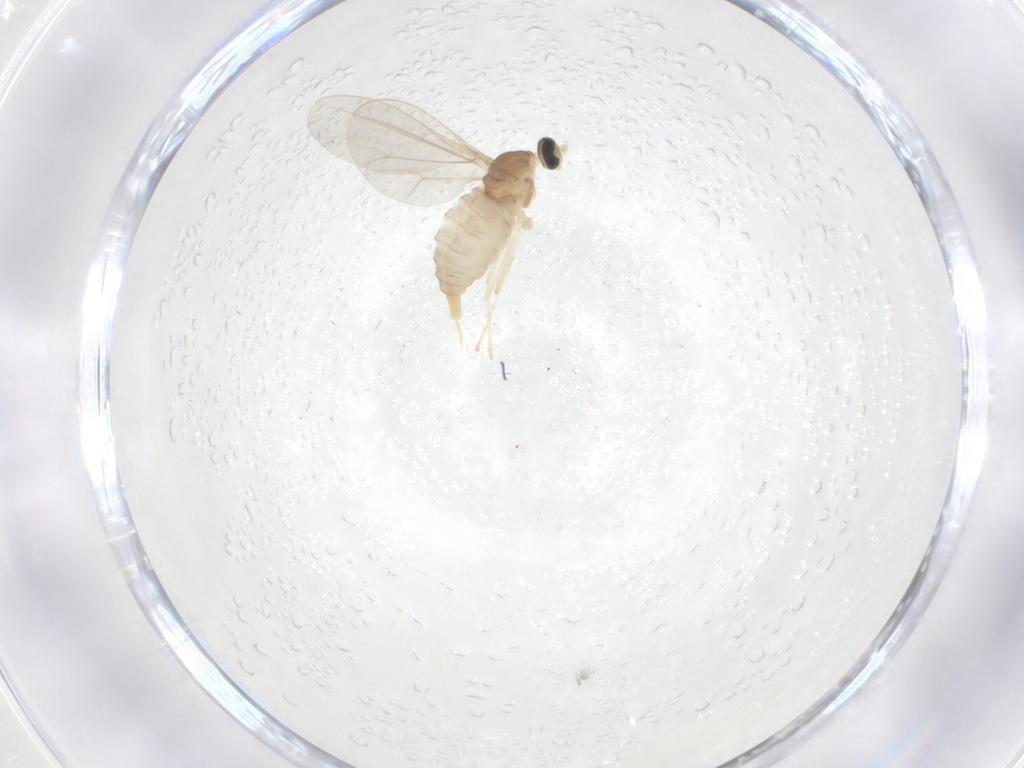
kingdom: Animalia
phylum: Arthropoda
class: Insecta
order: Diptera
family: Cecidomyiidae
